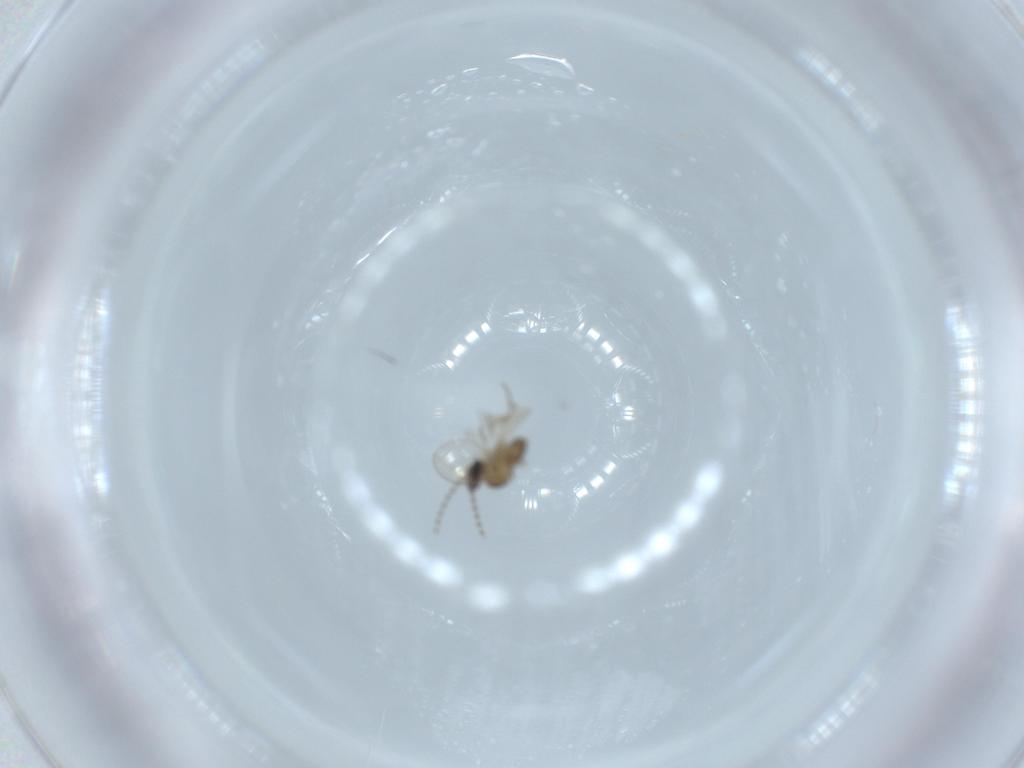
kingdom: Animalia
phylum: Arthropoda
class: Insecta
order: Diptera
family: Cecidomyiidae
